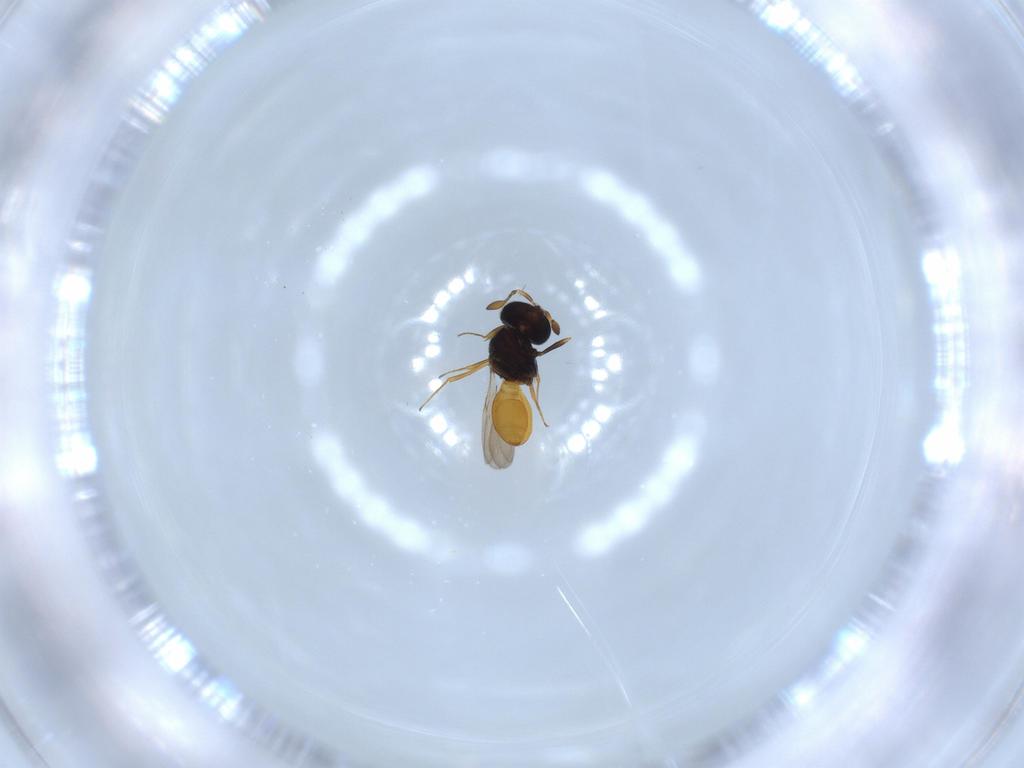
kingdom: Animalia
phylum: Arthropoda
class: Insecta
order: Hymenoptera
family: Scelionidae
